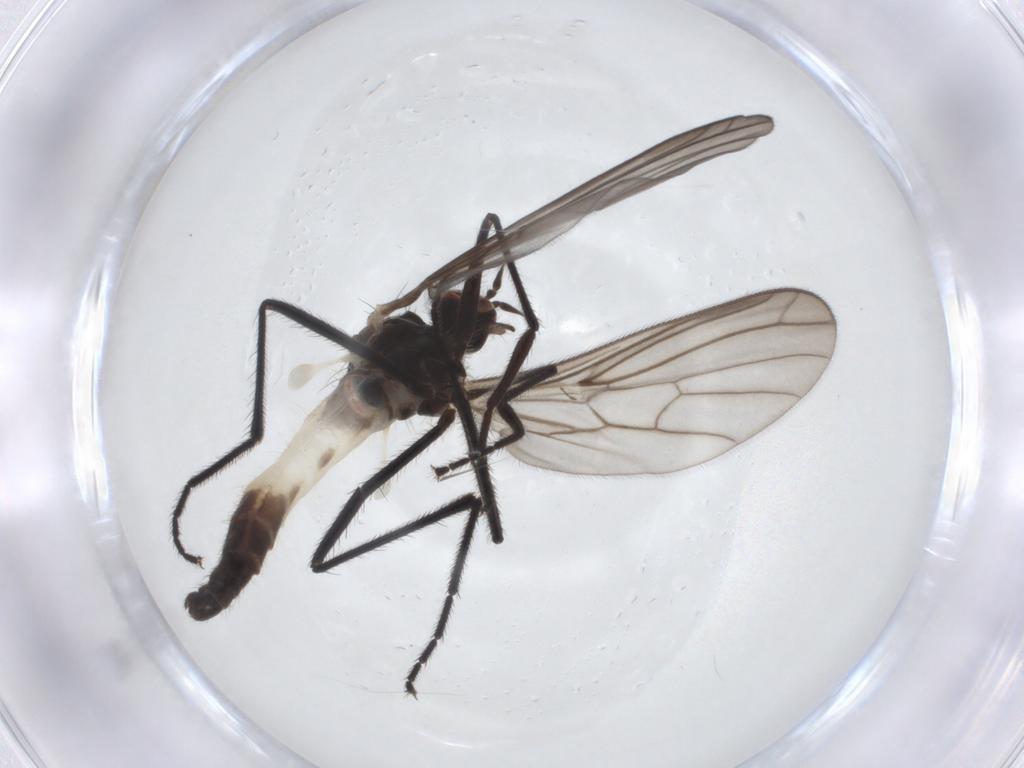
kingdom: Animalia
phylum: Arthropoda
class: Insecta
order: Diptera
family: Empididae
